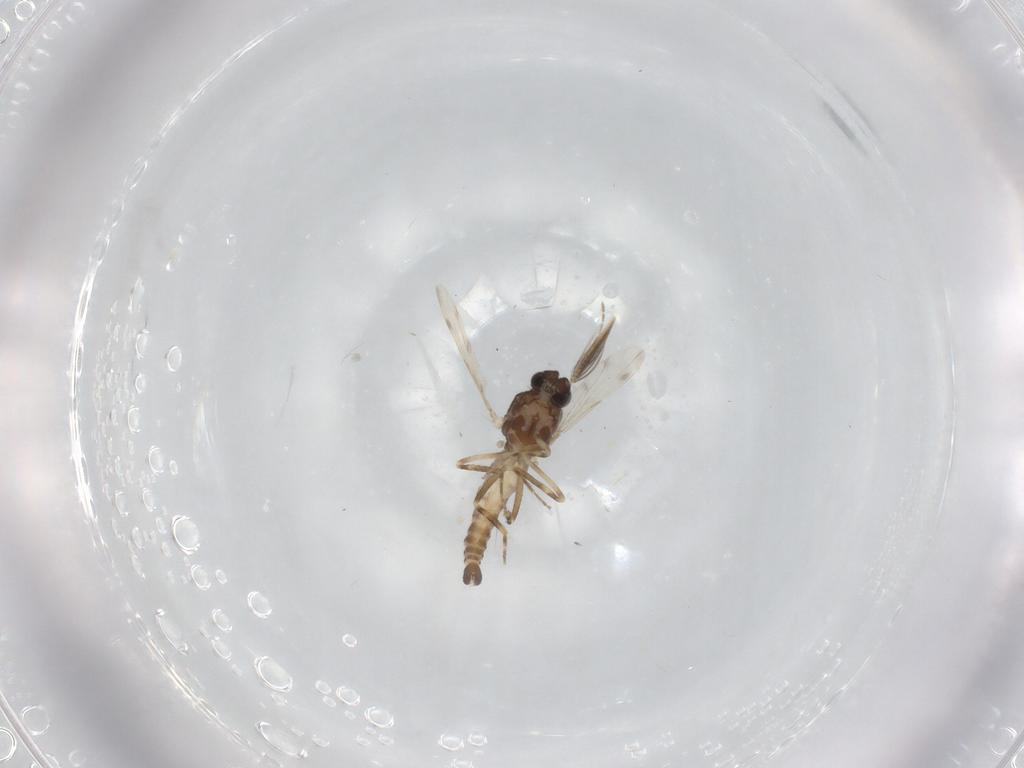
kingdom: Animalia
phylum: Arthropoda
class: Insecta
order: Diptera
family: Ceratopogonidae
